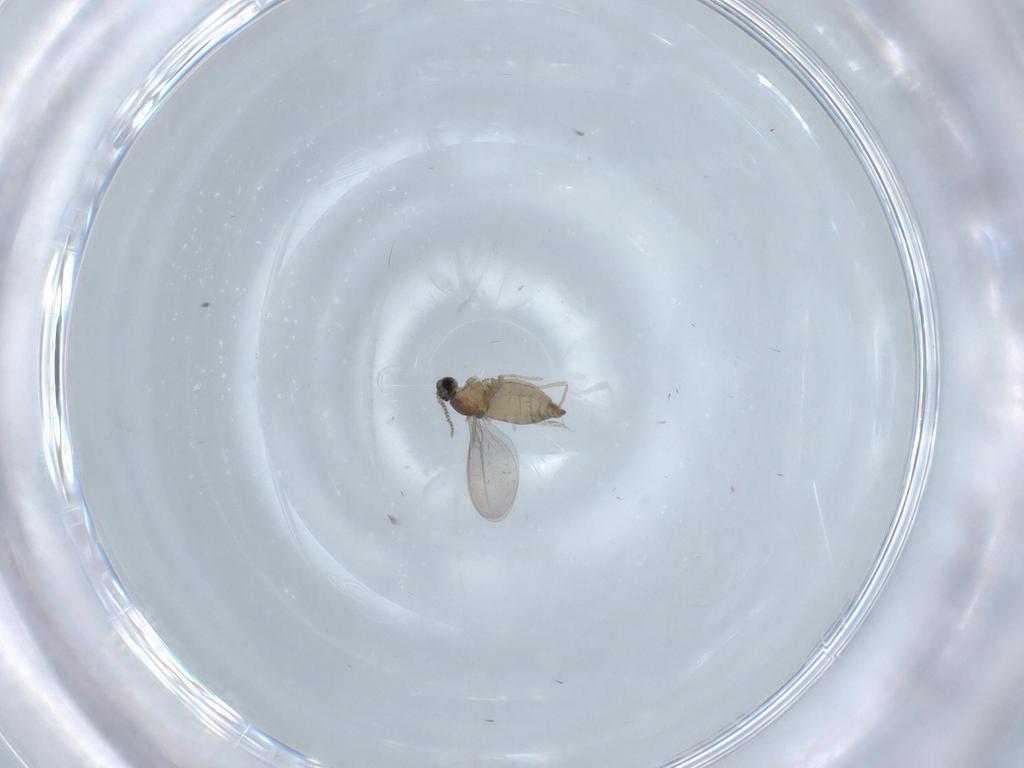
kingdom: Animalia
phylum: Arthropoda
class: Insecta
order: Diptera
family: Cecidomyiidae
